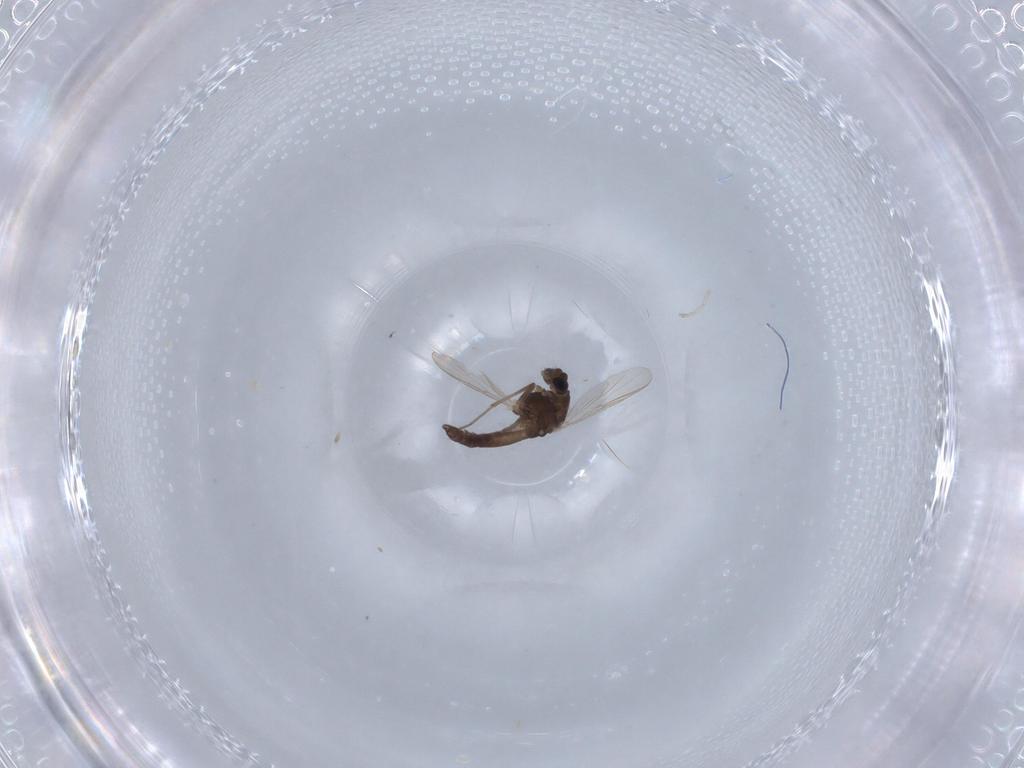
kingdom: Animalia
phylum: Arthropoda
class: Insecta
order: Diptera
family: Chironomidae
